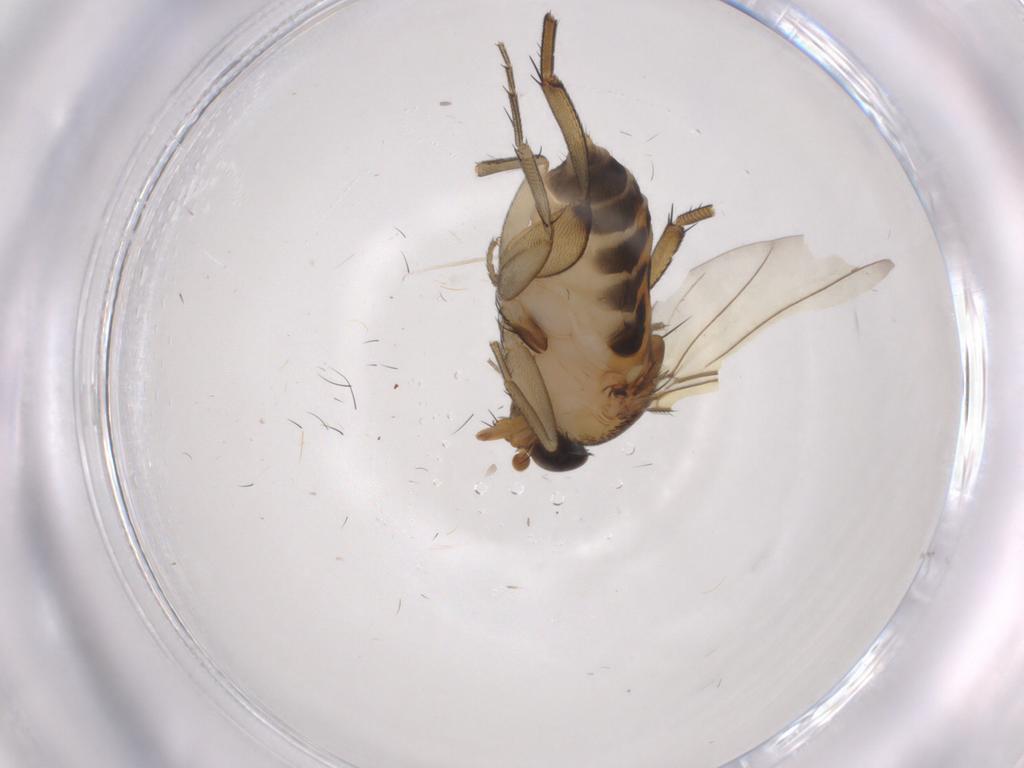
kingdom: Animalia
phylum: Arthropoda
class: Insecta
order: Diptera
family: Phoridae
